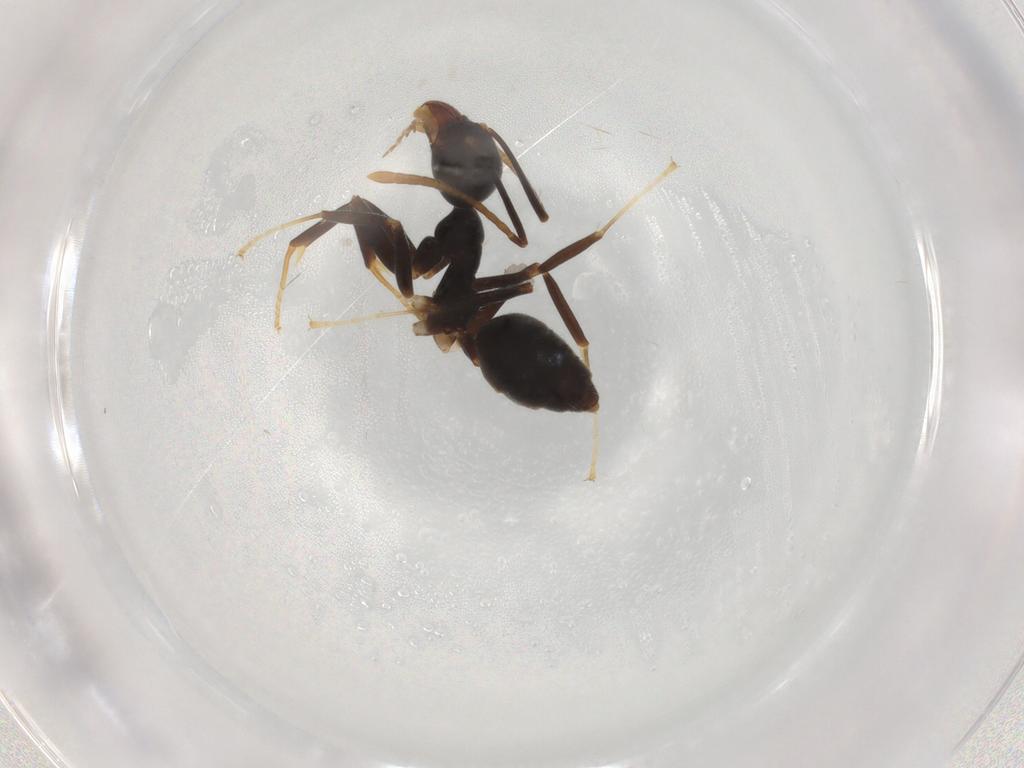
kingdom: Animalia
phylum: Arthropoda
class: Insecta
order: Hymenoptera
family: Formicidae
